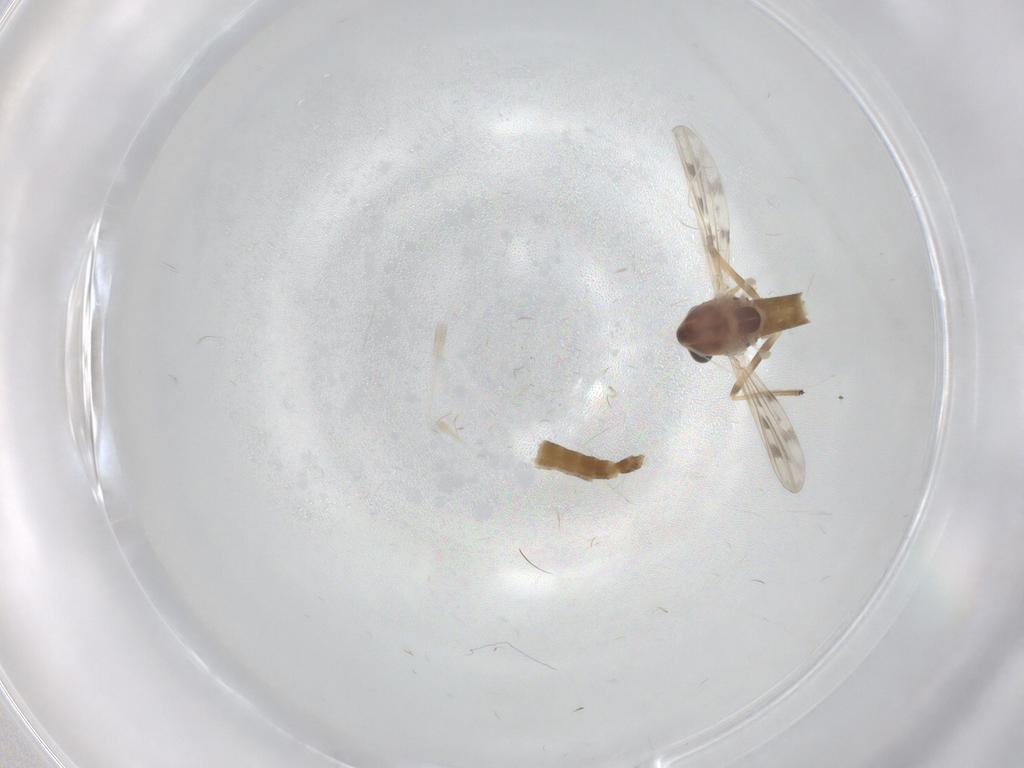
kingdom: Animalia
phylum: Arthropoda
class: Insecta
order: Diptera
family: Chironomidae
